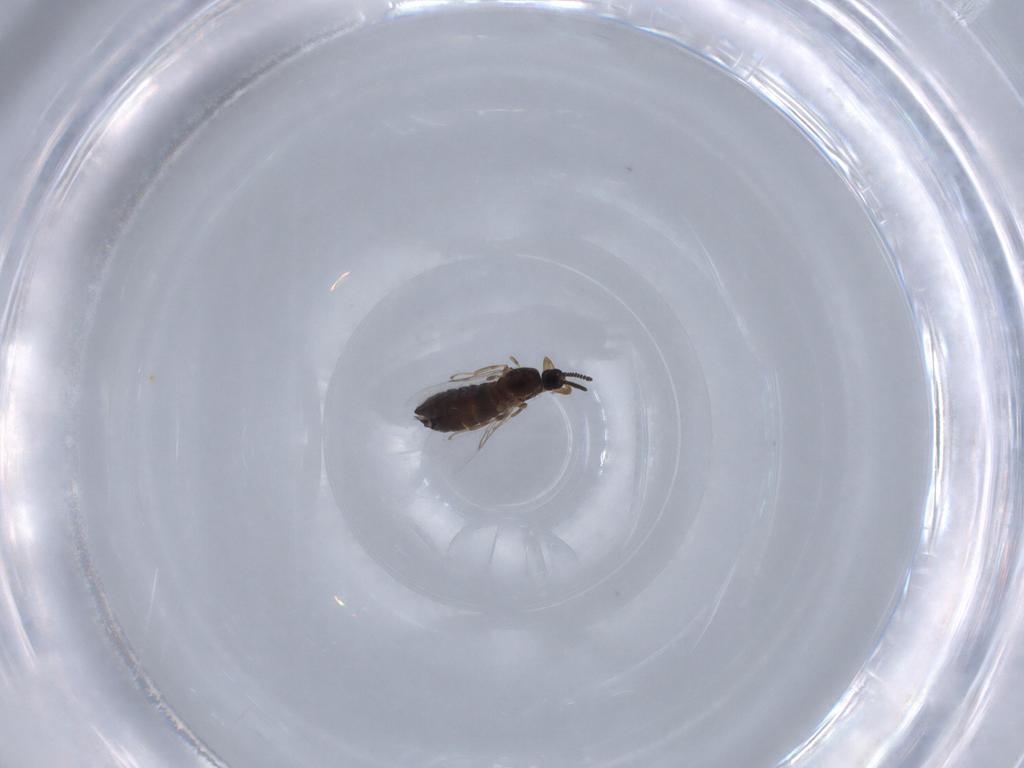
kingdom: Animalia
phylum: Arthropoda
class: Insecta
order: Diptera
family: Scatopsidae
